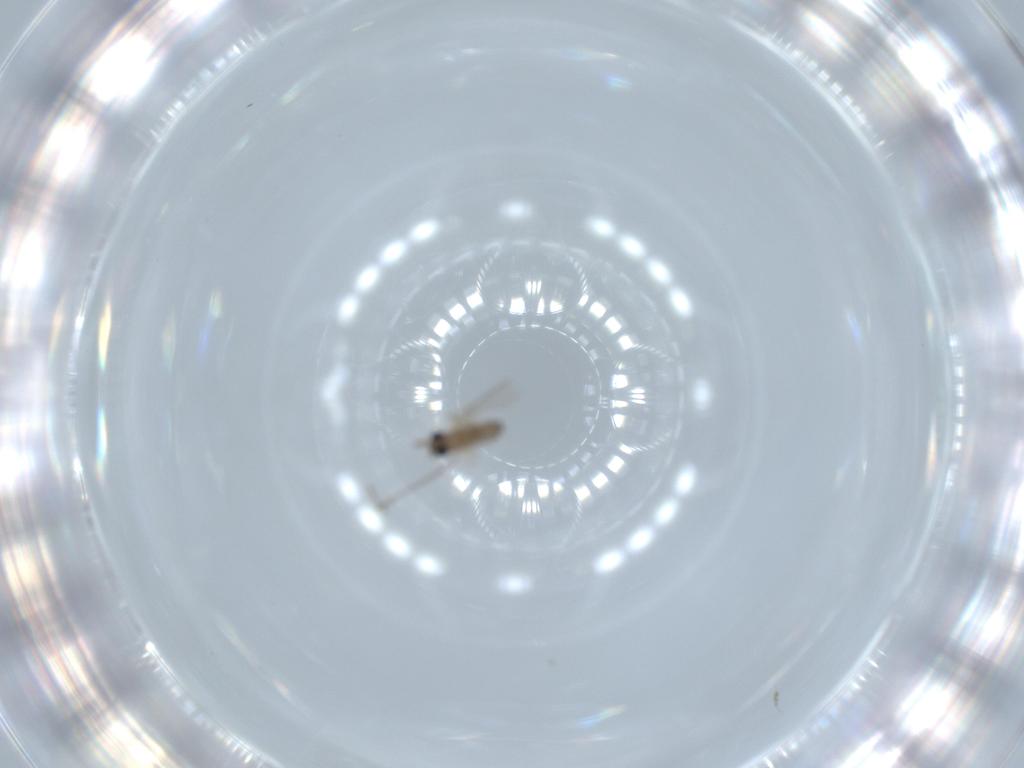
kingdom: Animalia
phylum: Arthropoda
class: Insecta
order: Diptera
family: Cecidomyiidae
